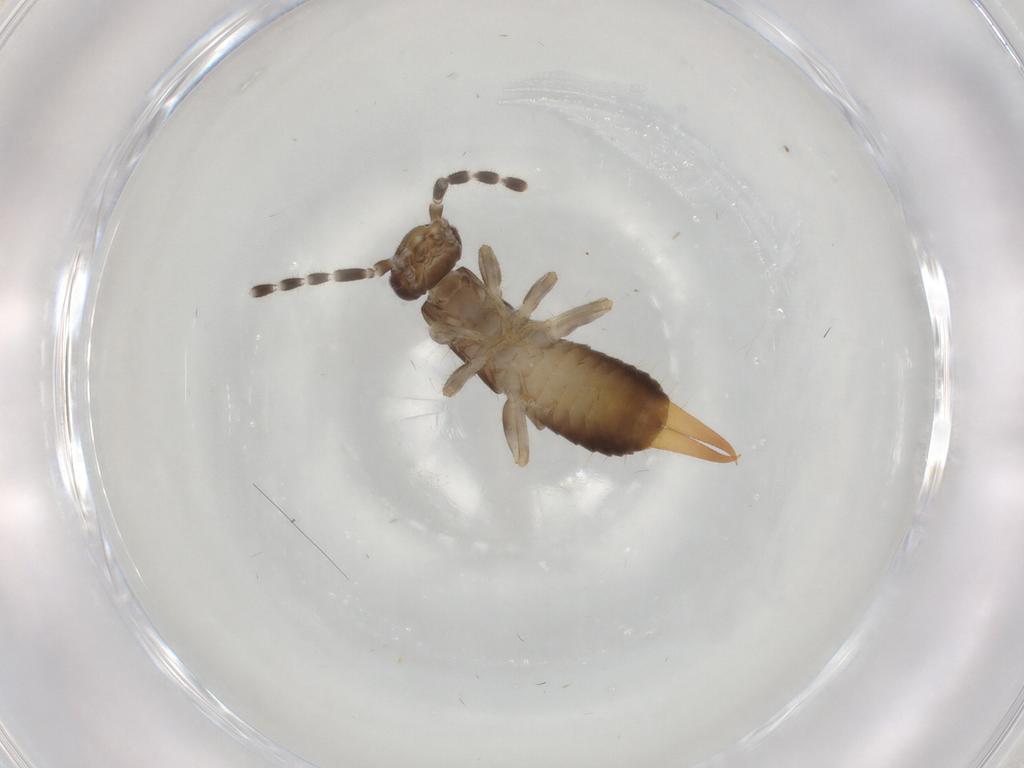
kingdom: Animalia
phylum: Arthropoda
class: Insecta
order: Dermaptera
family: Anisolabididae
